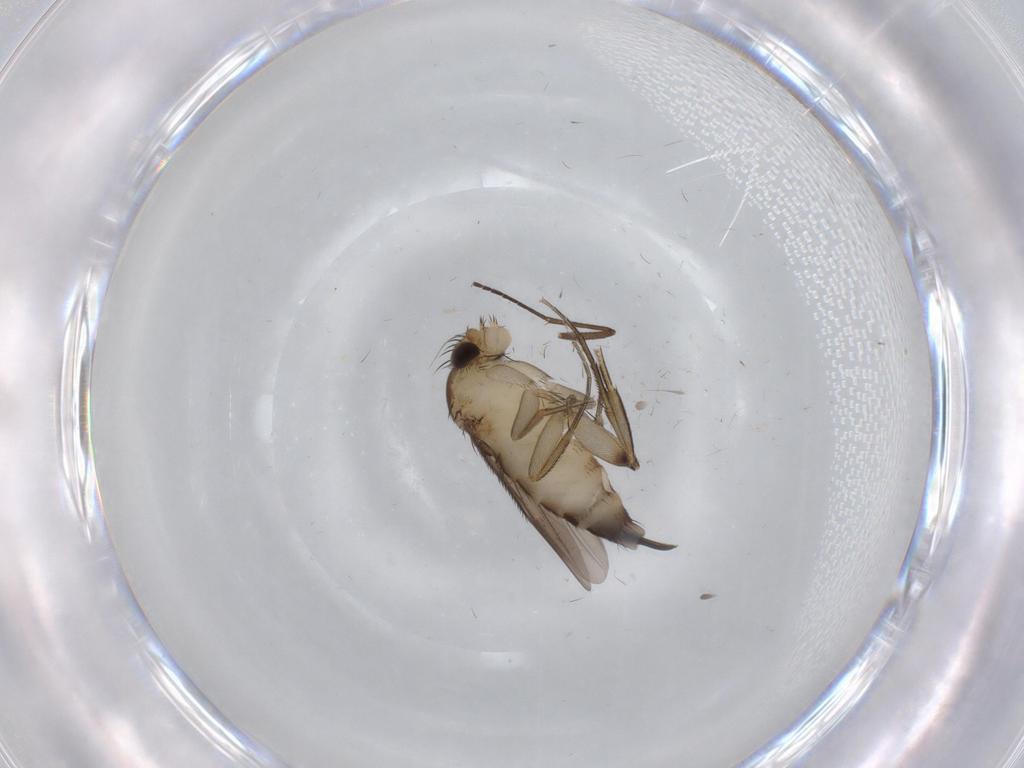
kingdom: Animalia
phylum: Arthropoda
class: Insecta
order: Diptera
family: Phoridae
